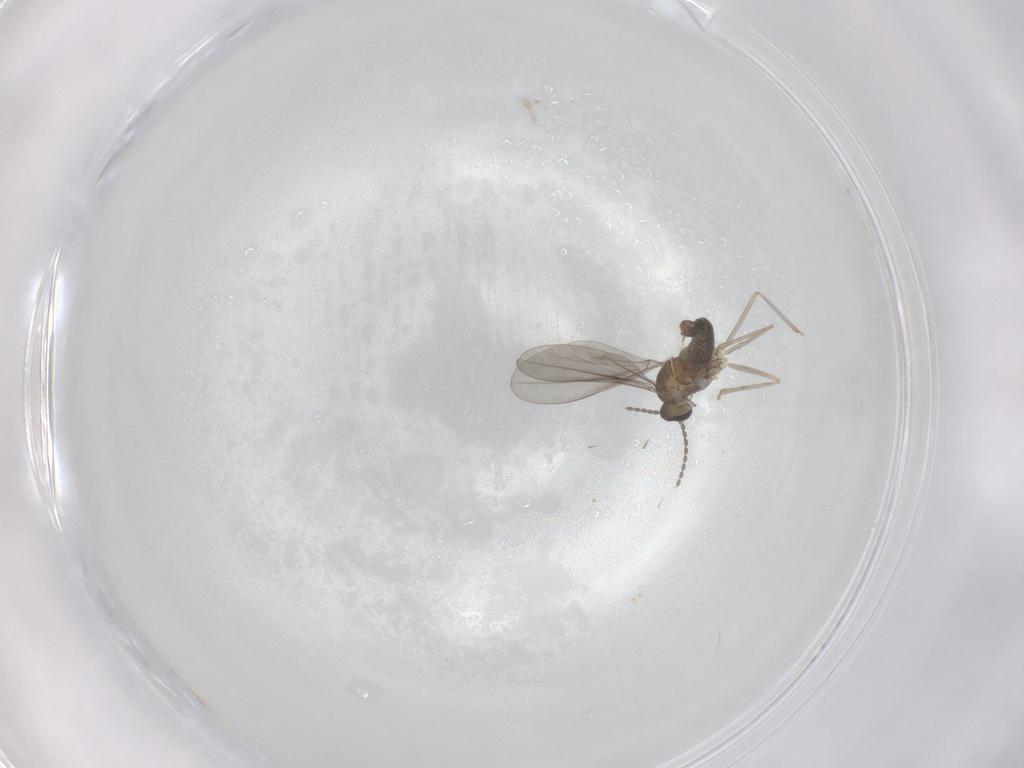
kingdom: Animalia
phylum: Arthropoda
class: Insecta
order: Diptera
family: Cecidomyiidae
